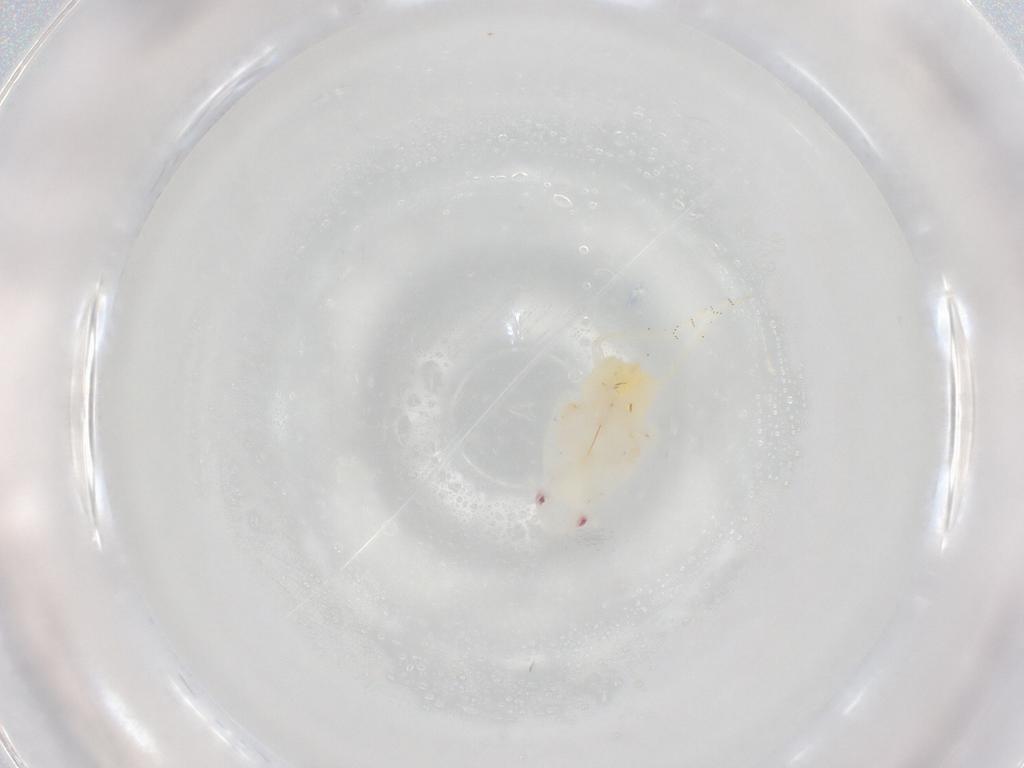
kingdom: Animalia
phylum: Arthropoda
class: Insecta
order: Hemiptera
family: Flatidae
